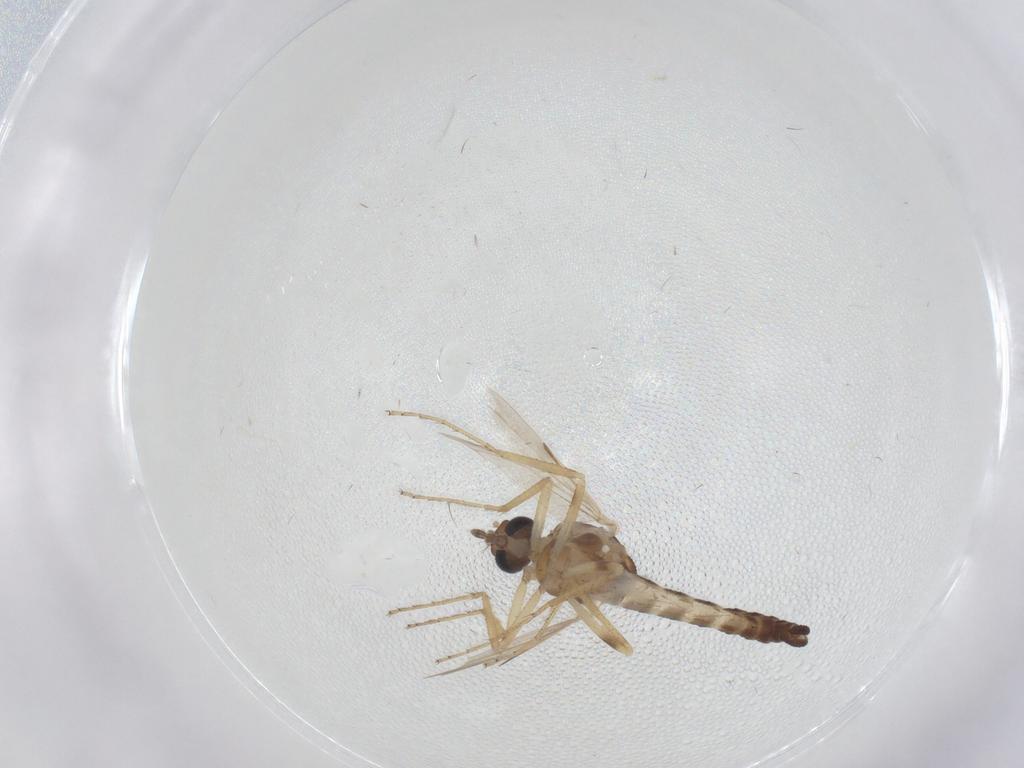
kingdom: Animalia
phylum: Arthropoda
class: Insecta
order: Diptera
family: Ceratopogonidae
